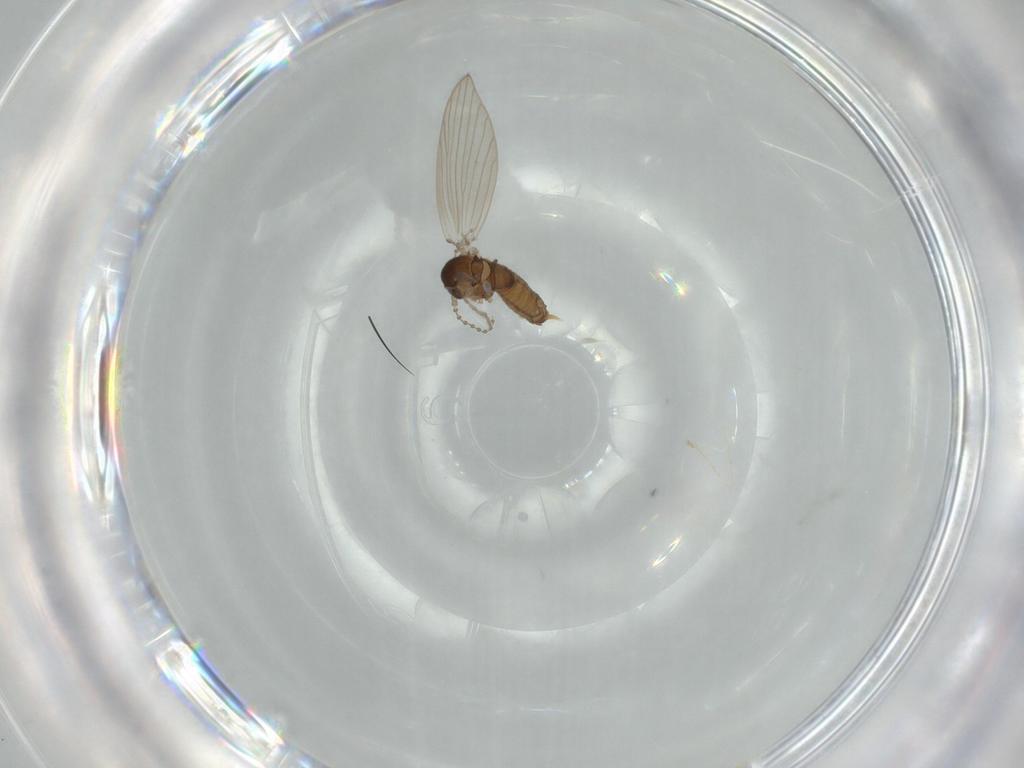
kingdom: Animalia
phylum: Arthropoda
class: Insecta
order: Diptera
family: Psychodidae
